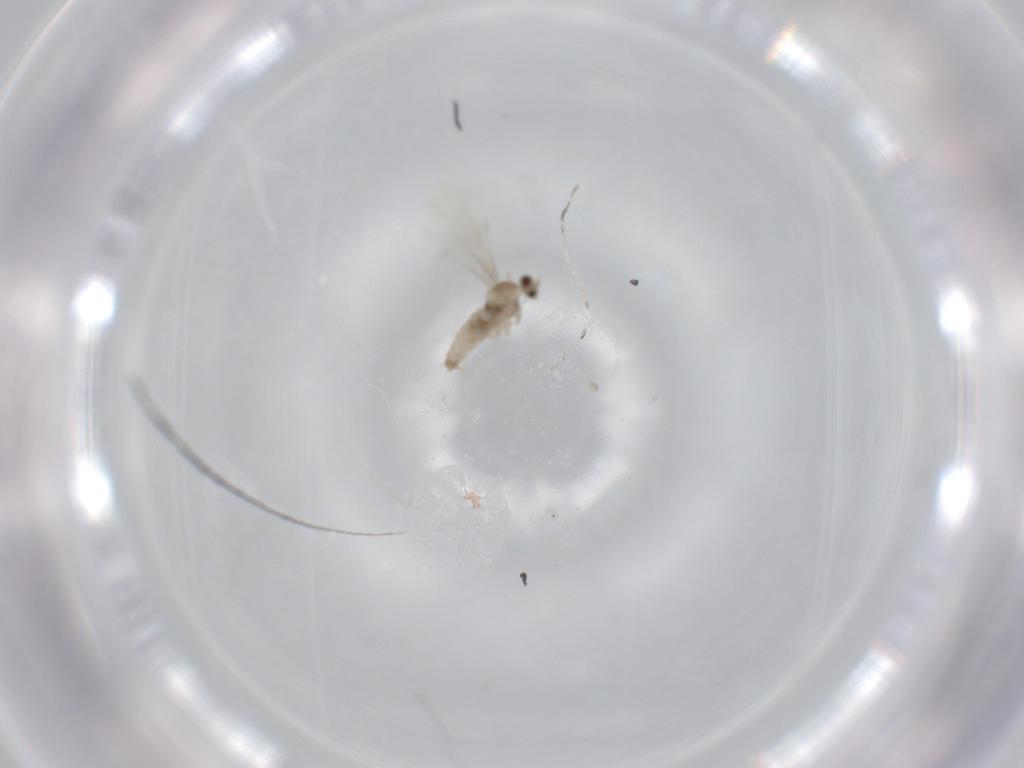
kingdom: Animalia
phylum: Arthropoda
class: Insecta
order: Diptera
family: Cecidomyiidae
